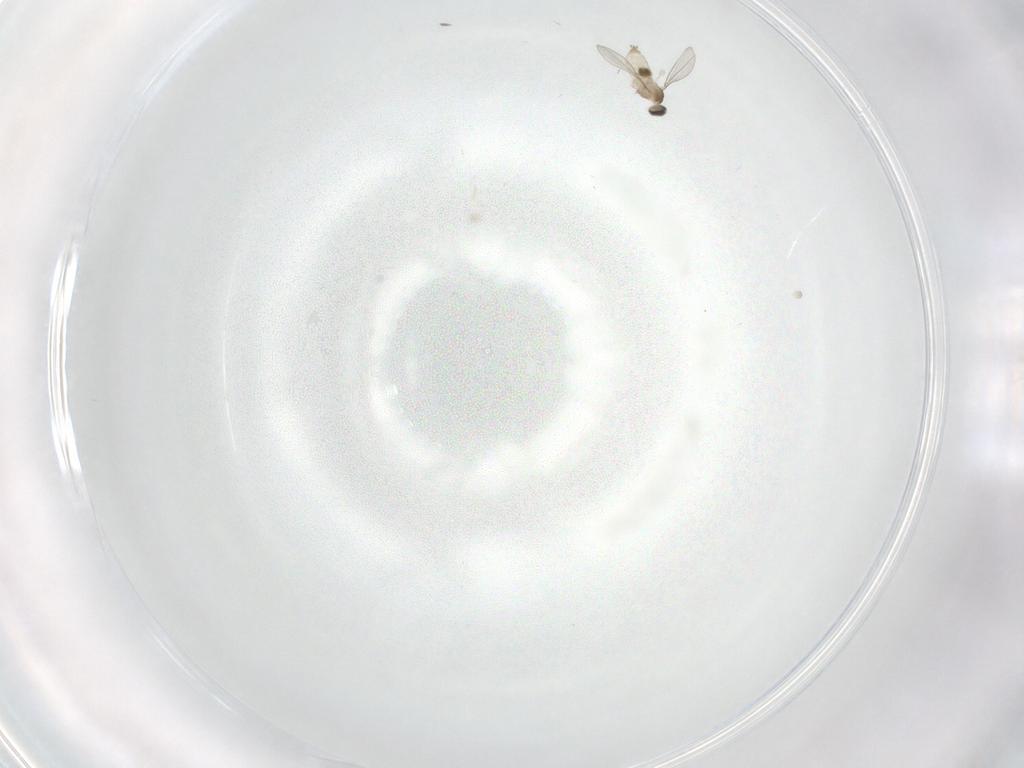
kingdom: Animalia
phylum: Arthropoda
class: Insecta
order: Diptera
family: Cecidomyiidae
